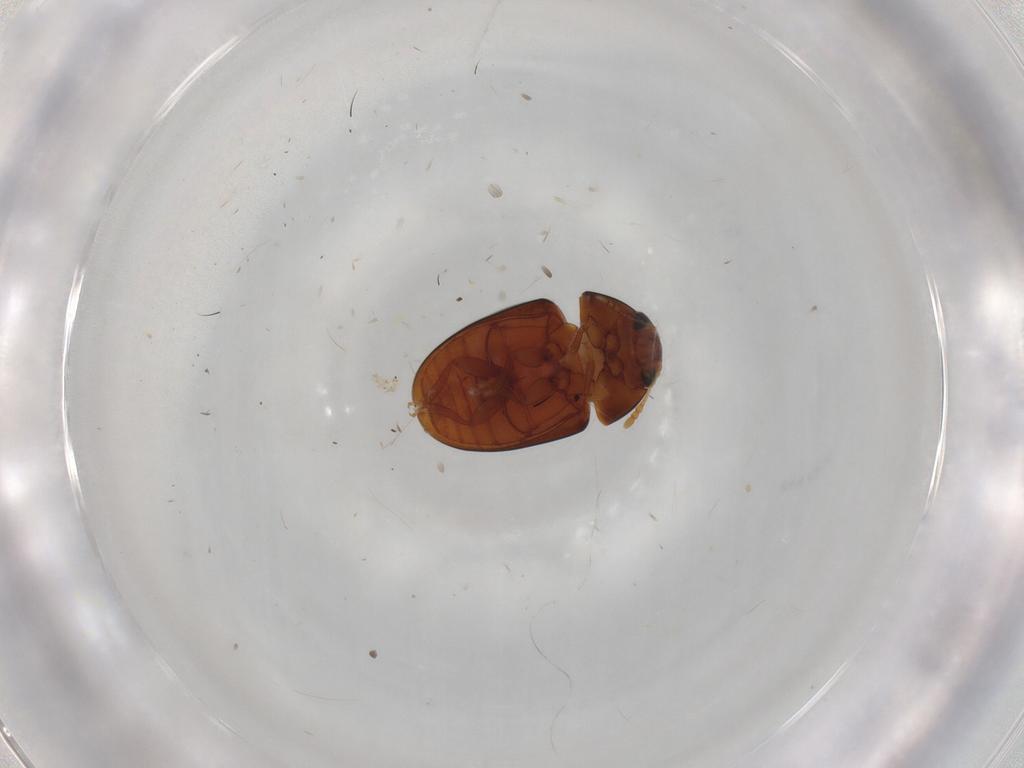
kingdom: Animalia
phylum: Arthropoda
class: Insecta
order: Coleoptera
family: Phalacridae
